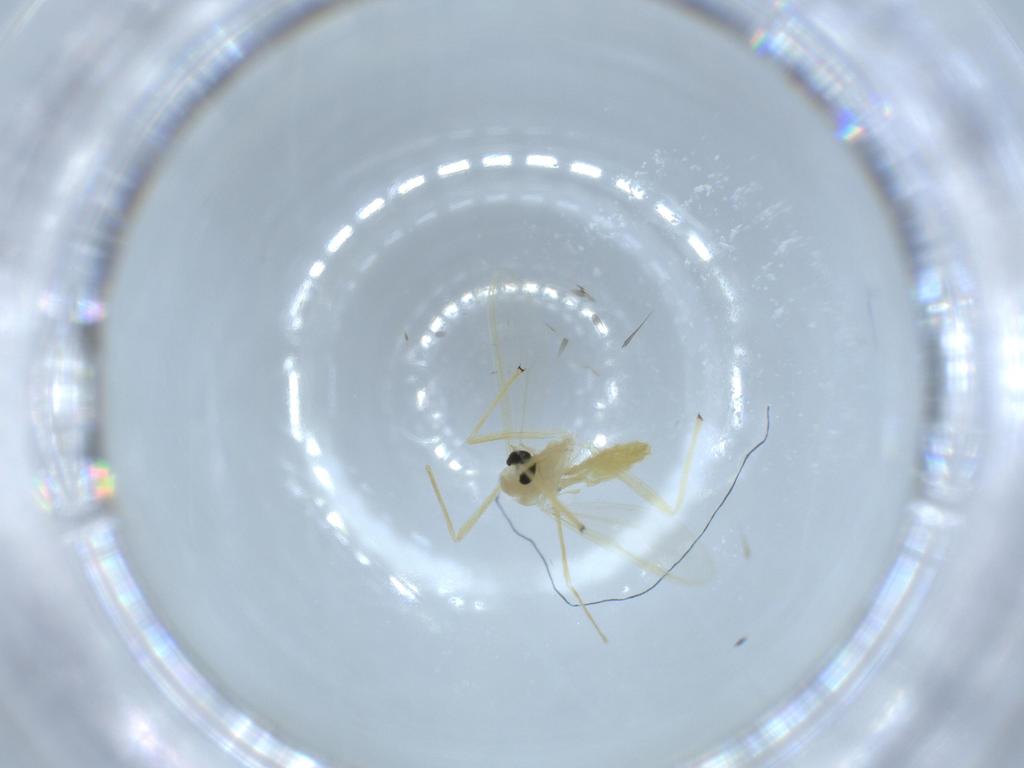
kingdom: Animalia
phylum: Arthropoda
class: Insecta
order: Diptera
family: Chironomidae
